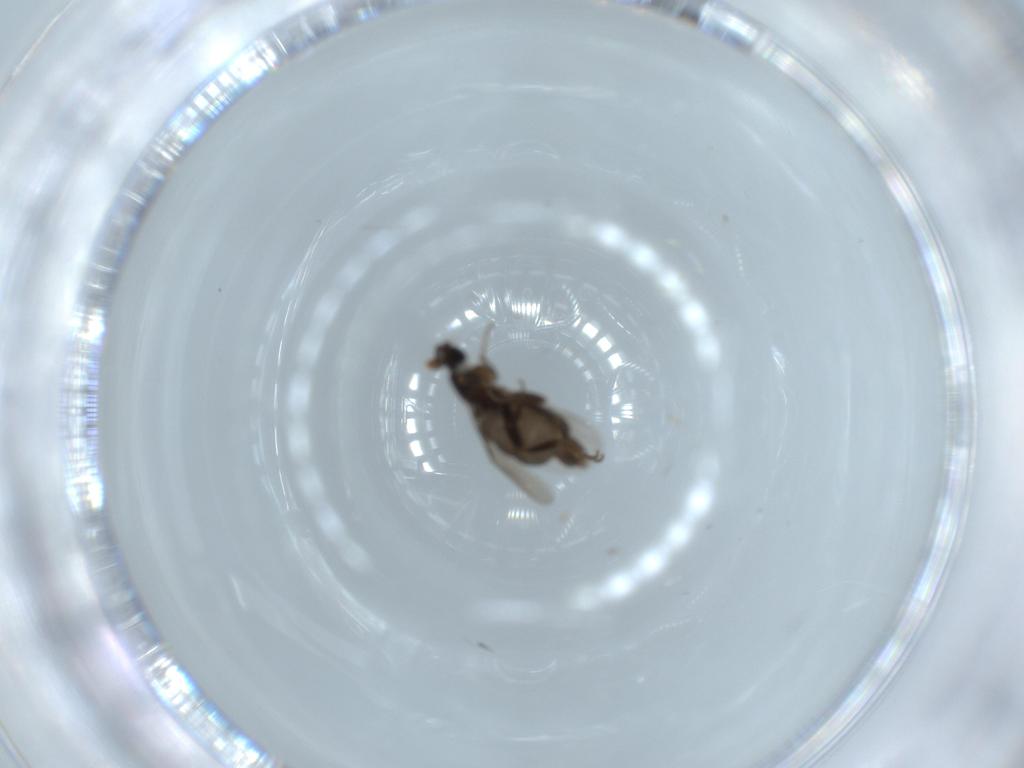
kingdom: Animalia
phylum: Arthropoda
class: Insecta
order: Diptera
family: Phoridae
